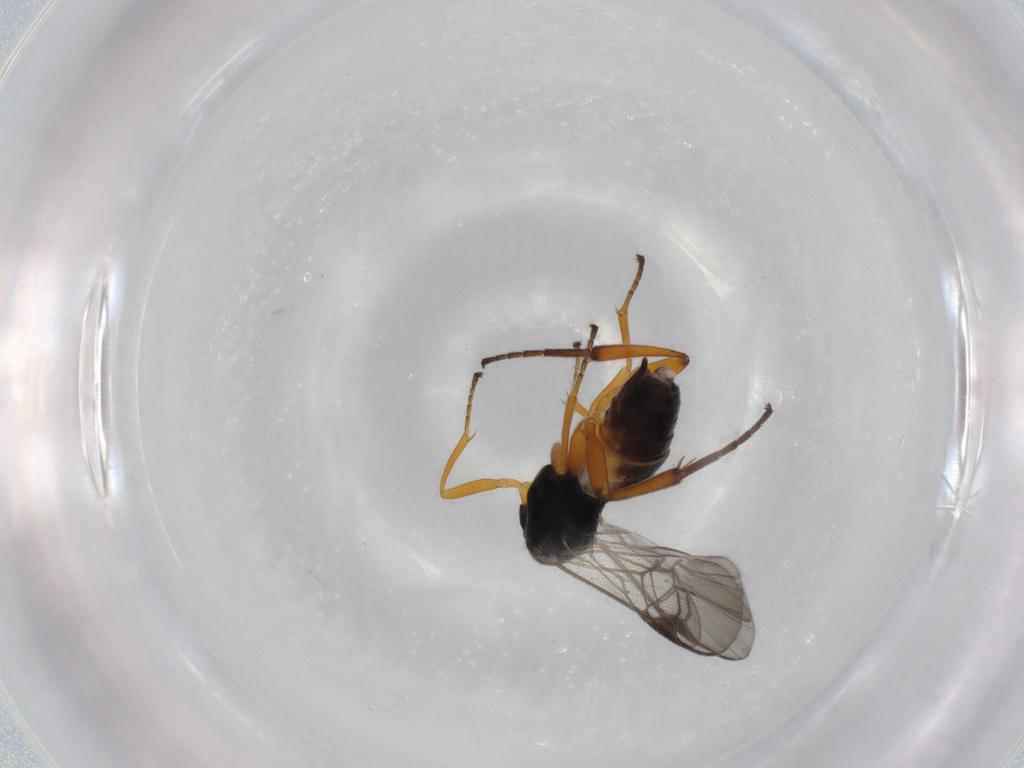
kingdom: Animalia
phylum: Arthropoda
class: Insecta
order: Hymenoptera
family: Braconidae
